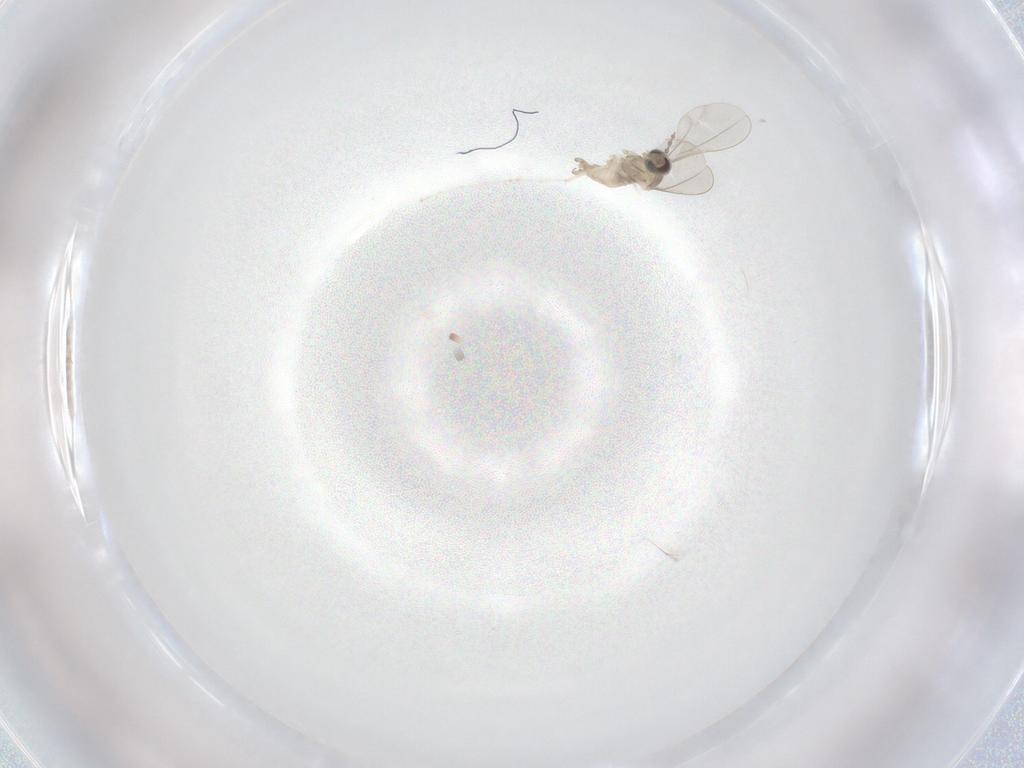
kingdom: Animalia
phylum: Arthropoda
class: Insecta
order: Diptera
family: Cecidomyiidae
